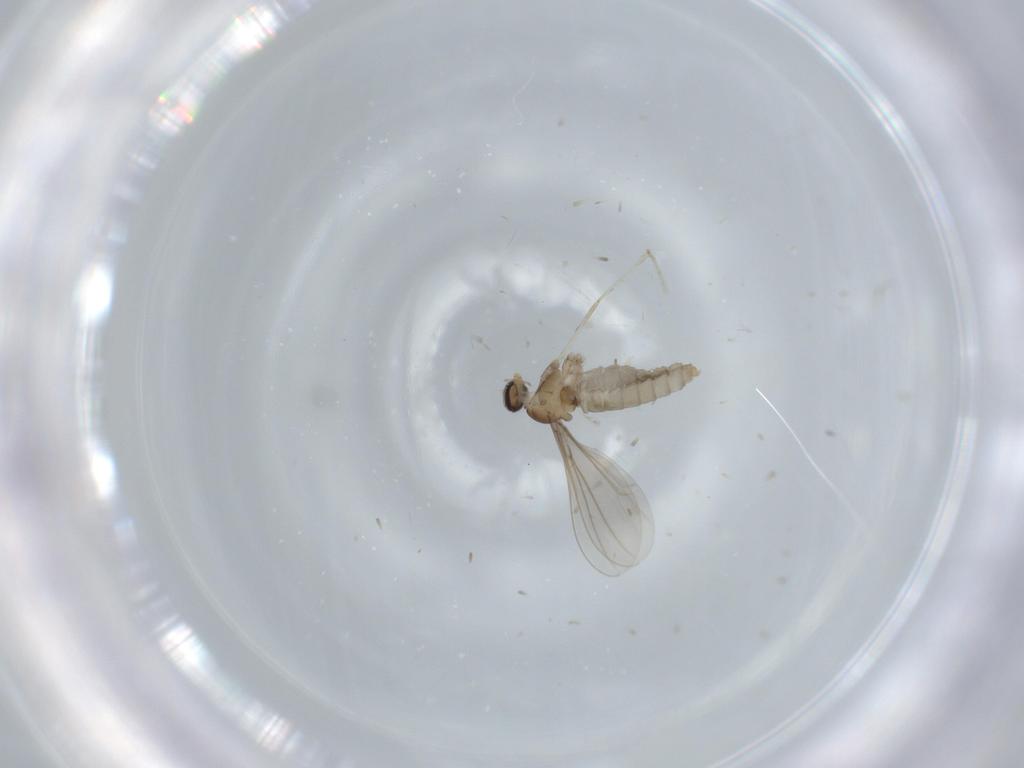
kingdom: Animalia
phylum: Arthropoda
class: Insecta
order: Diptera
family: Cecidomyiidae
